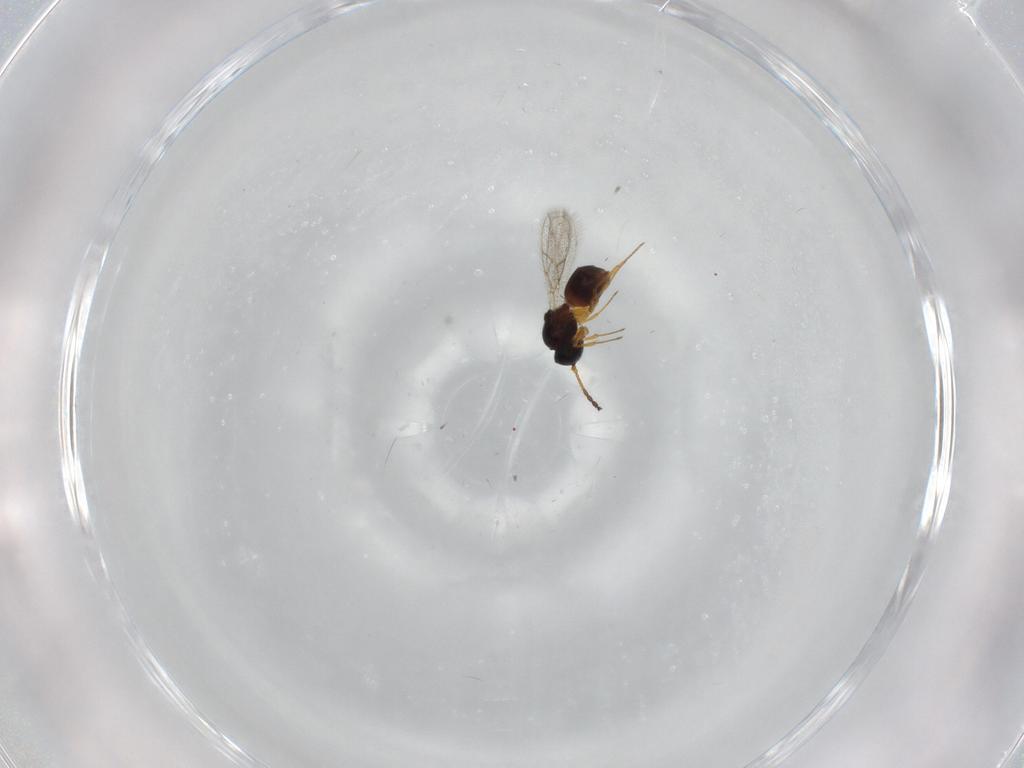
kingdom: Animalia
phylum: Arthropoda
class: Insecta
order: Hymenoptera
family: Figitidae
